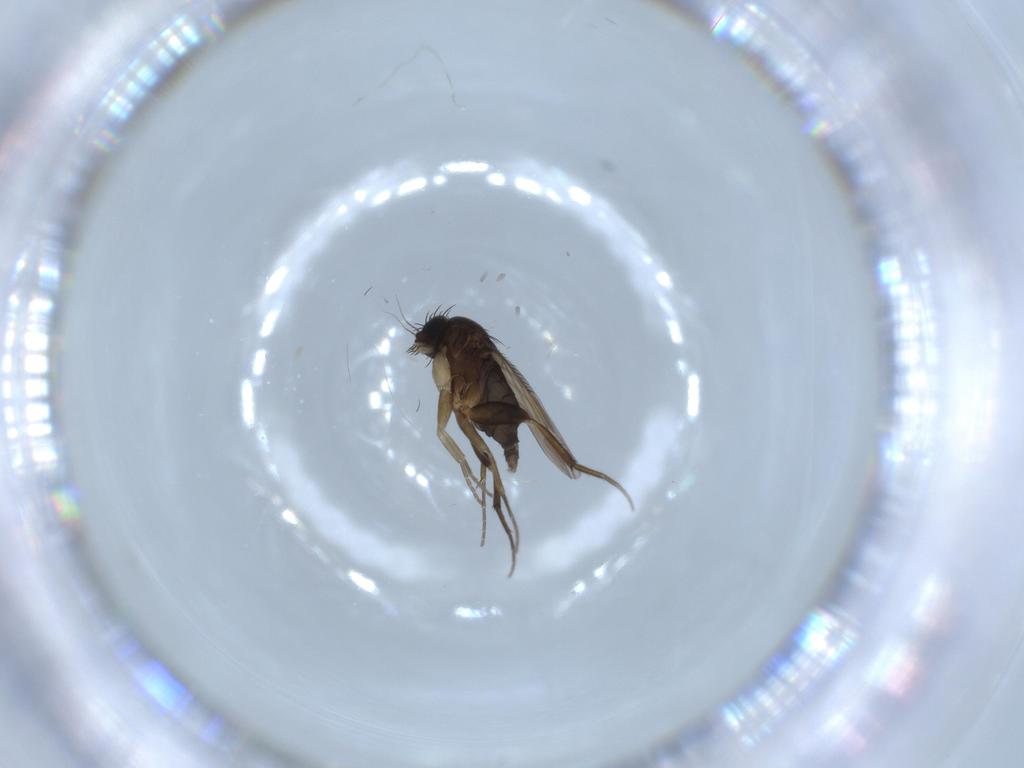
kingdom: Animalia
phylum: Arthropoda
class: Insecta
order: Diptera
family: Phoridae
